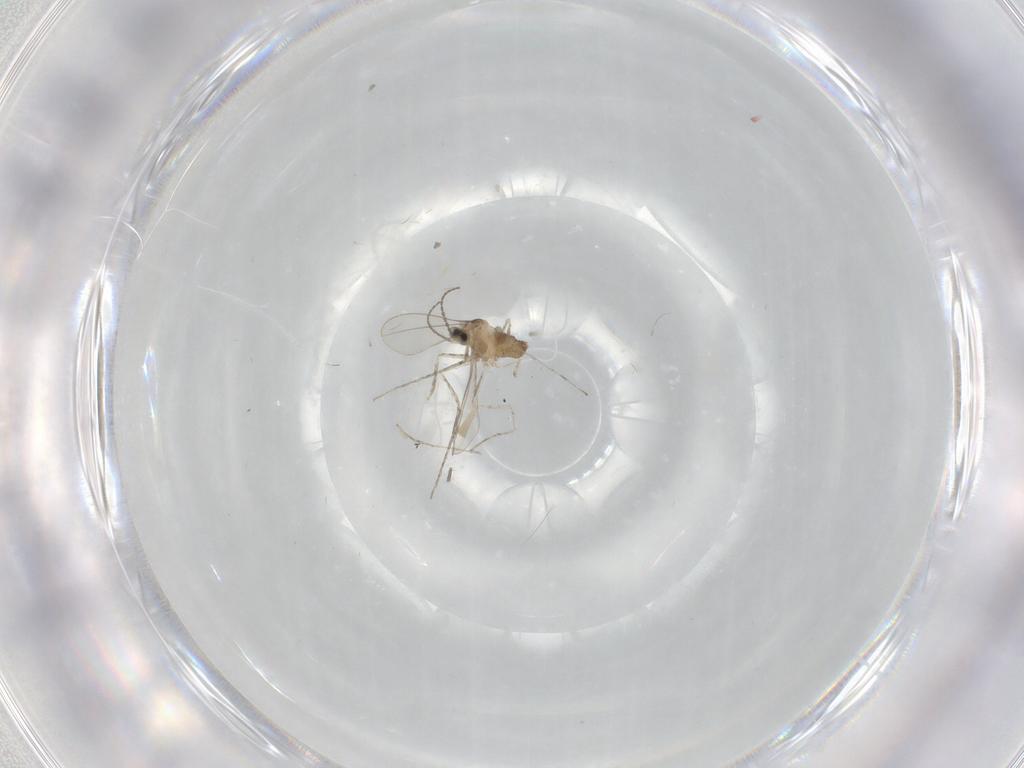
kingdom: Animalia
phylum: Arthropoda
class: Insecta
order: Diptera
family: Cecidomyiidae
